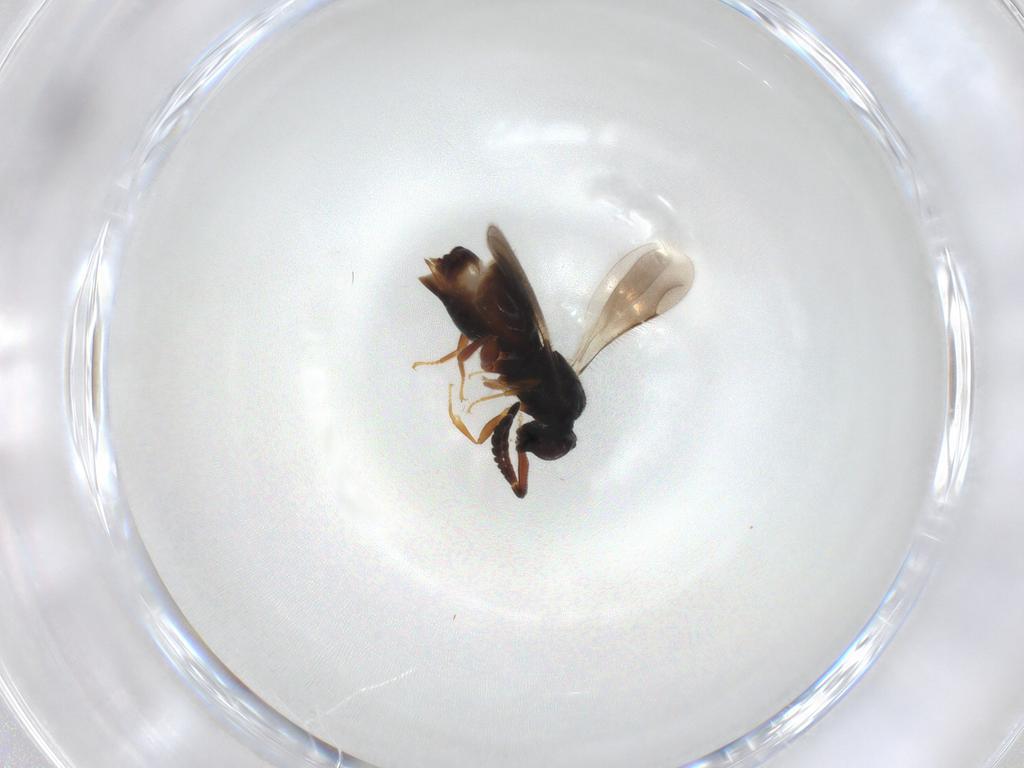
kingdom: Animalia
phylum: Arthropoda
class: Insecta
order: Hymenoptera
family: Ceraphronidae
